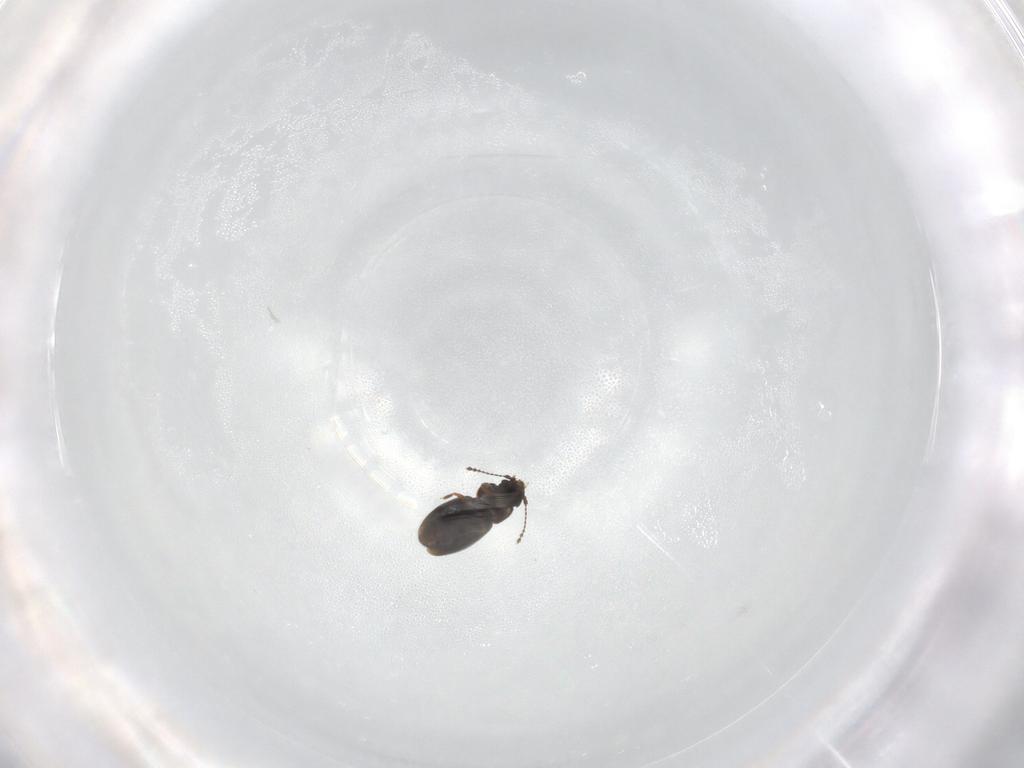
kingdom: Animalia
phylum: Arthropoda
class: Insecta
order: Coleoptera
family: Ptiliidae
